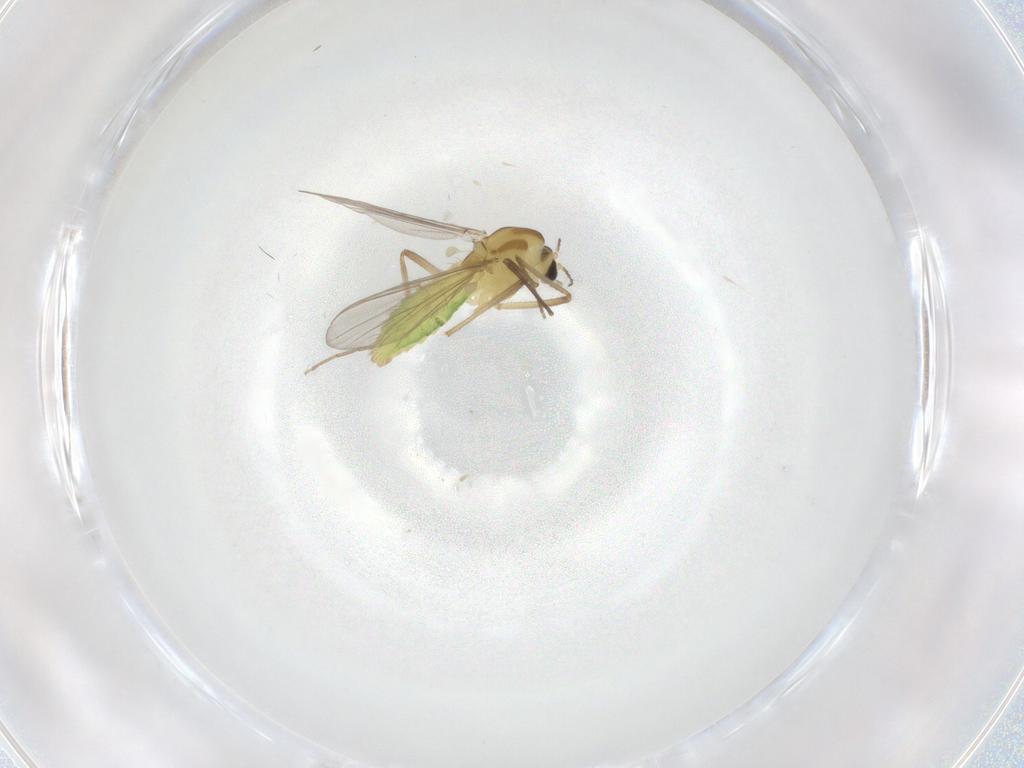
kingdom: Animalia
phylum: Arthropoda
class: Insecta
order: Diptera
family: Chironomidae
